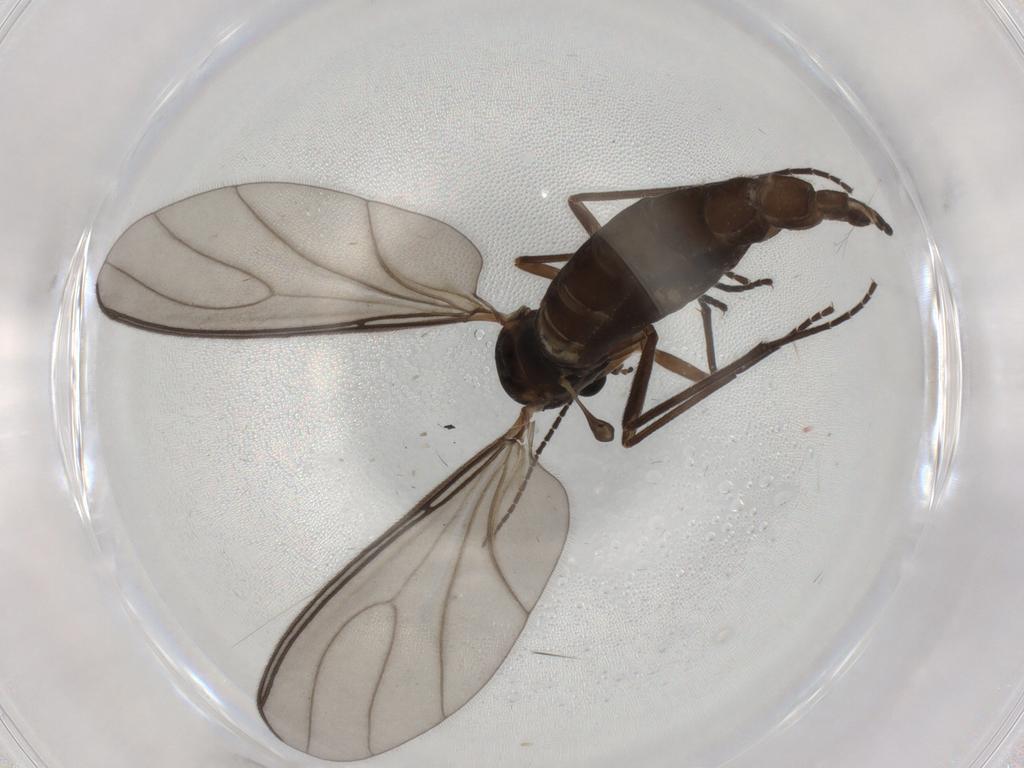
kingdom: Animalia
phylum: Arthropoda
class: Insecta
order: Diptera
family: Sciaridae
